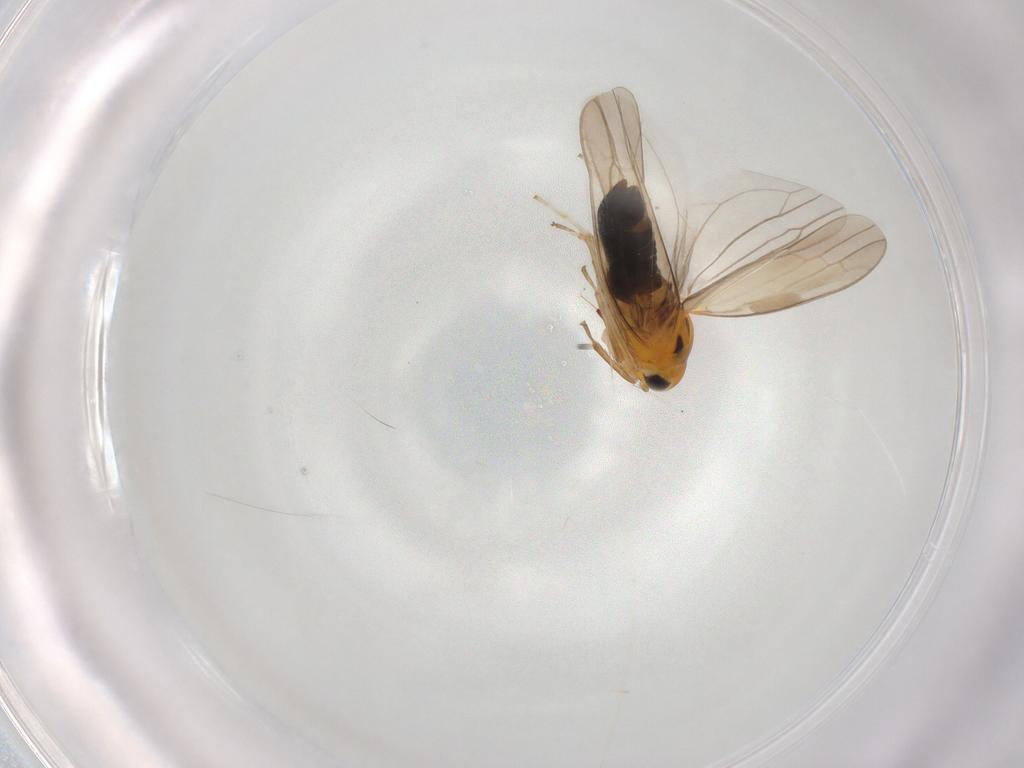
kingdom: Animalia
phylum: Arthropoda
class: Insecta
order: Hemiptera
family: Cicadellidae
